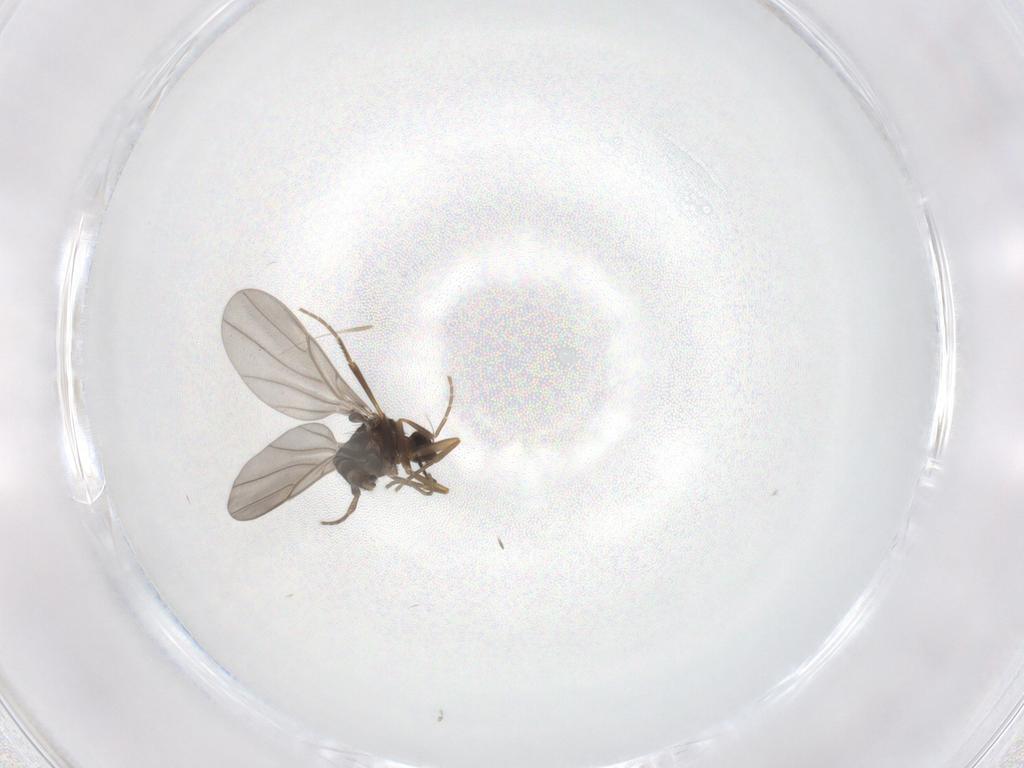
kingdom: Animalia
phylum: Arthropoda
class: Insecta
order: Diptera
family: Phoridae
